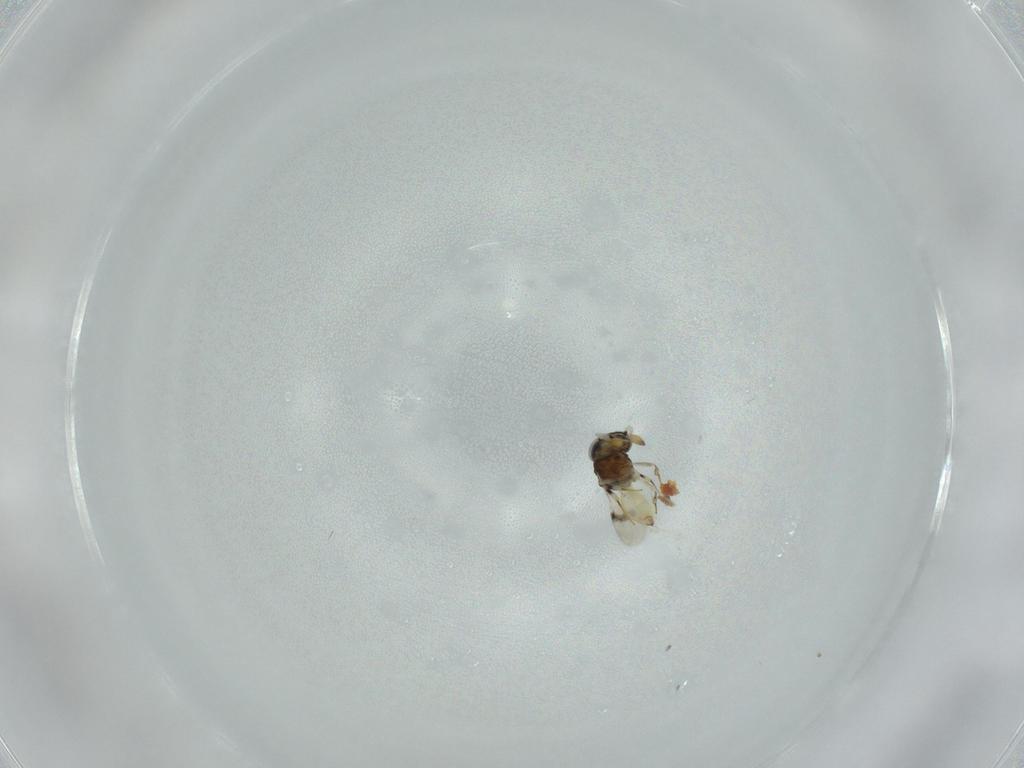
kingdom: Animalia
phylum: Arthropoda
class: Insecta
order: Hymenoptera
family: Scelionidae
